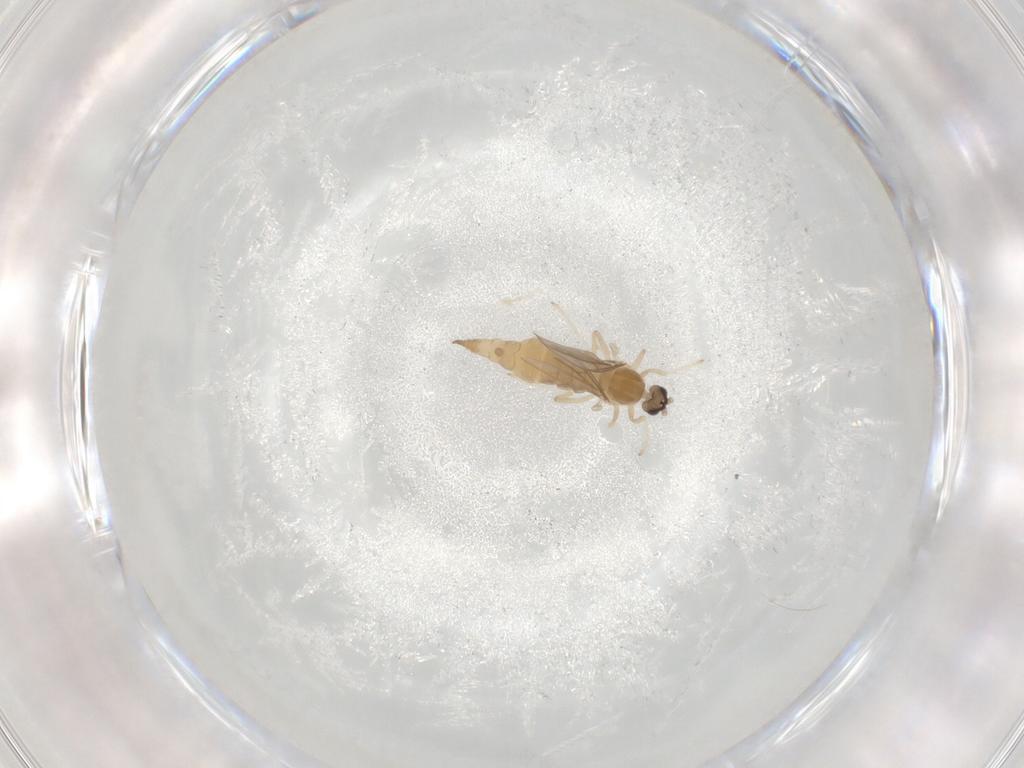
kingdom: Animalia
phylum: Arthropoda
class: Insecta
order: Diptera
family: Cecidomyiidae
